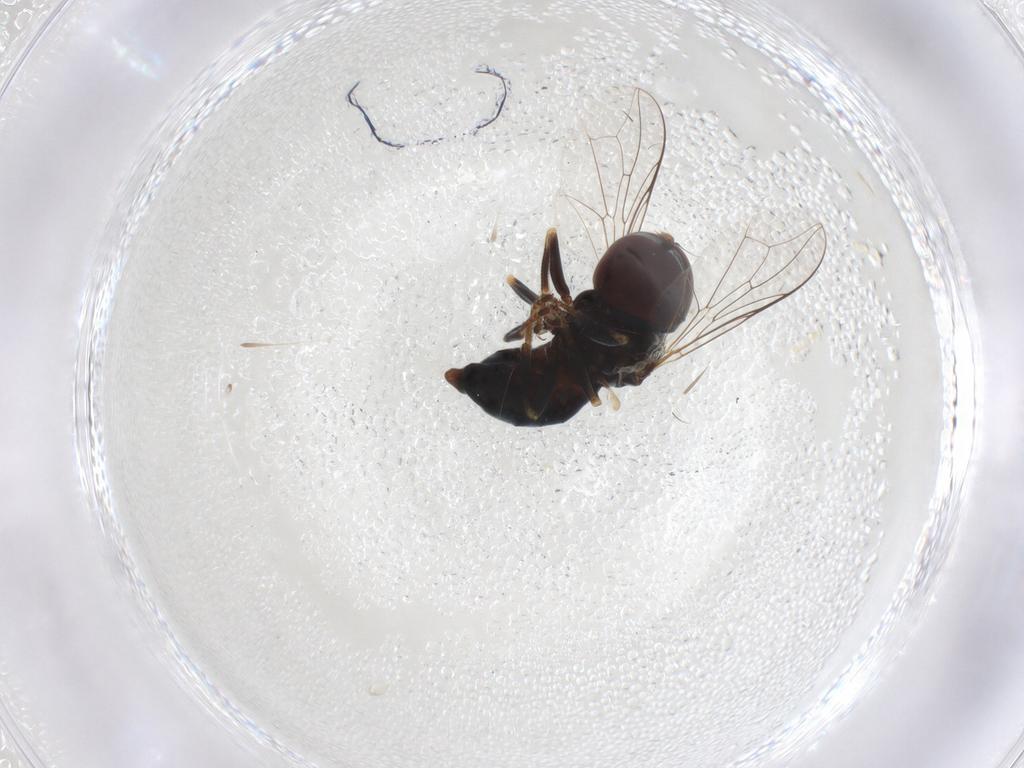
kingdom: Animalia
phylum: Arthropoda
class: Insecta
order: Diptera
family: Pipunculidae
